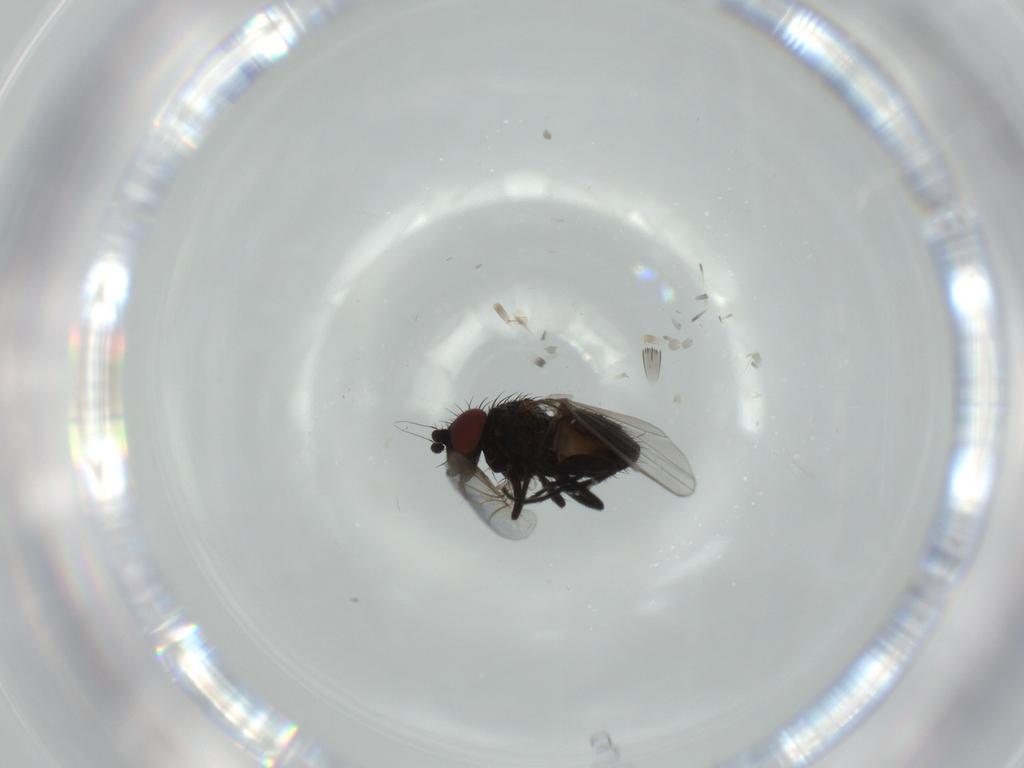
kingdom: Animalia
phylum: Arthropoda
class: Insecta
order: Diptera
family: Milichiidae
